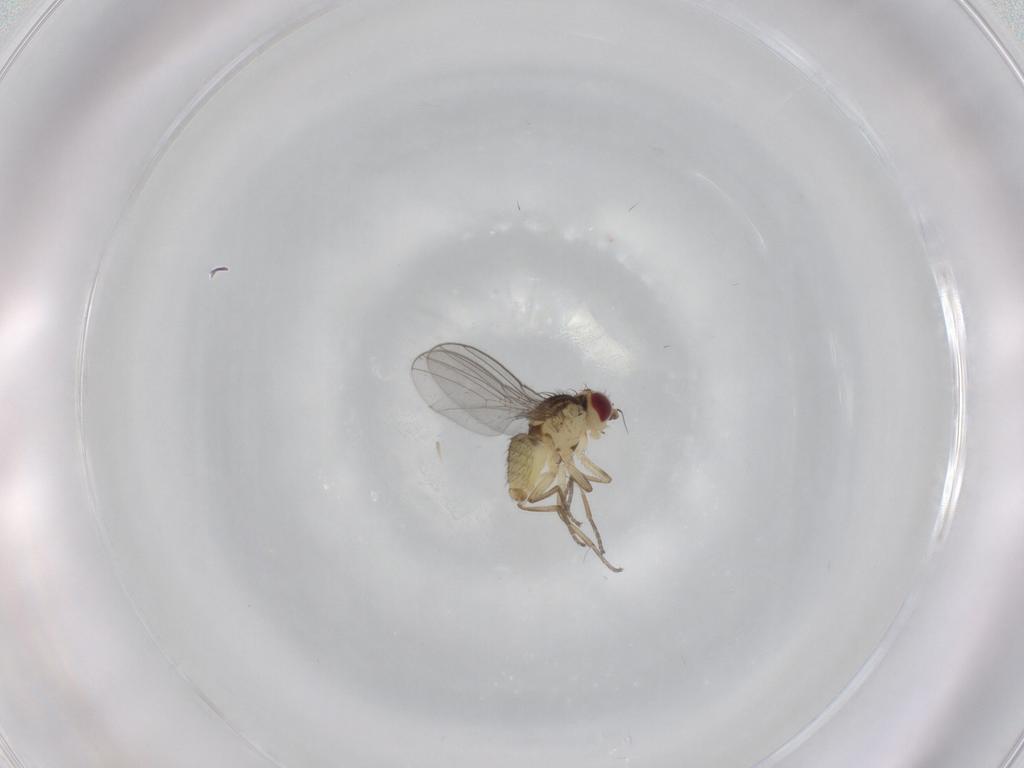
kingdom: Animalia
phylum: Arthropoda
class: Insecta
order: Diptera
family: Agromyzidae
